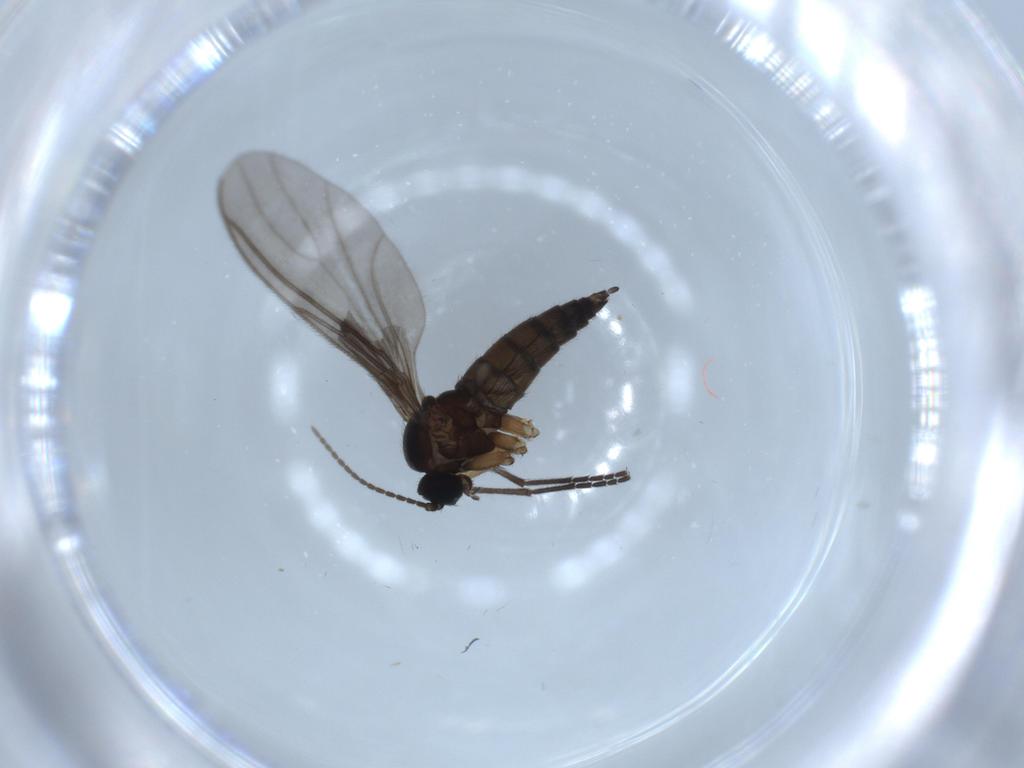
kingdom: Animalia
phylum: Arthropoda
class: Insecta
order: Diptera
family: Sciaridae
